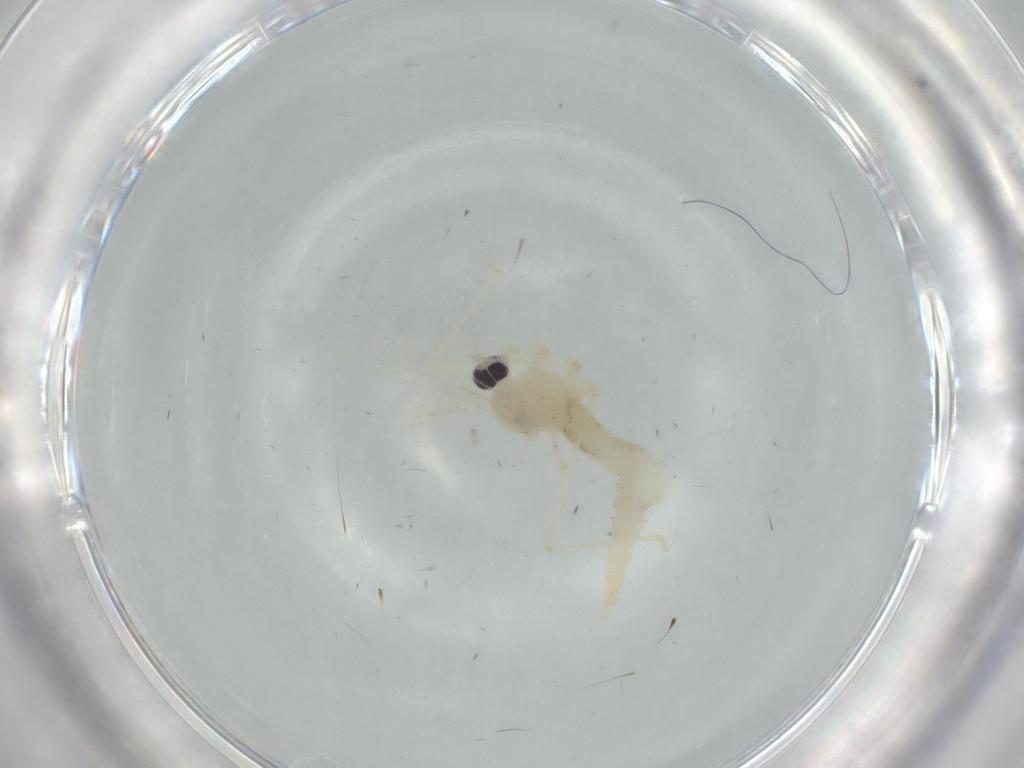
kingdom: Animalia
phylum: Arthropoda
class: Insecta
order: Diptera
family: Cecidomyiidae
